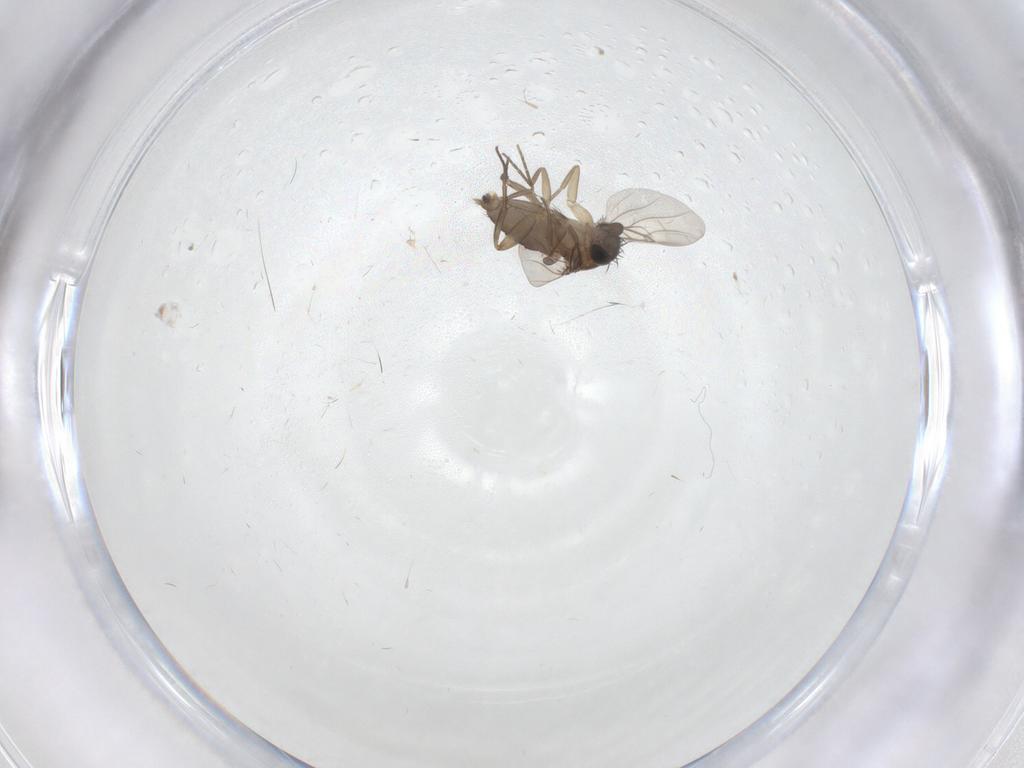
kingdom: Animalia
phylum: Arthropoda
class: Insecta
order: Diptera
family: Phoridae
